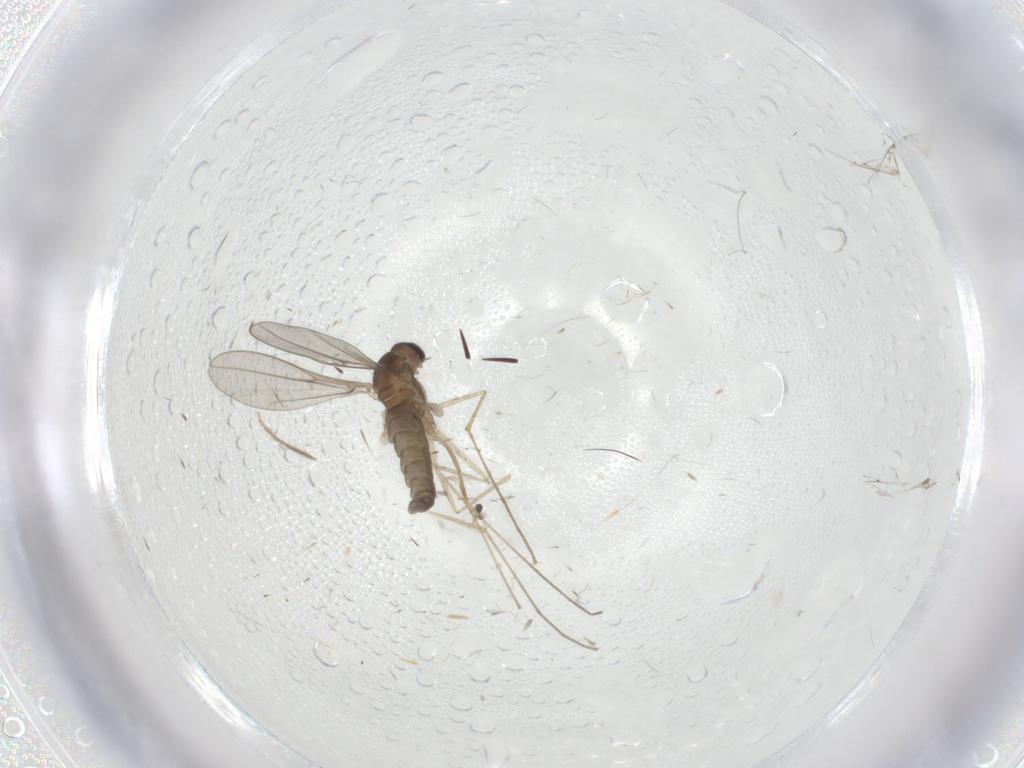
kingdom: Animalia
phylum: Arthropoda
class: Insecta
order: Diptera
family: Cecidomyiidae
